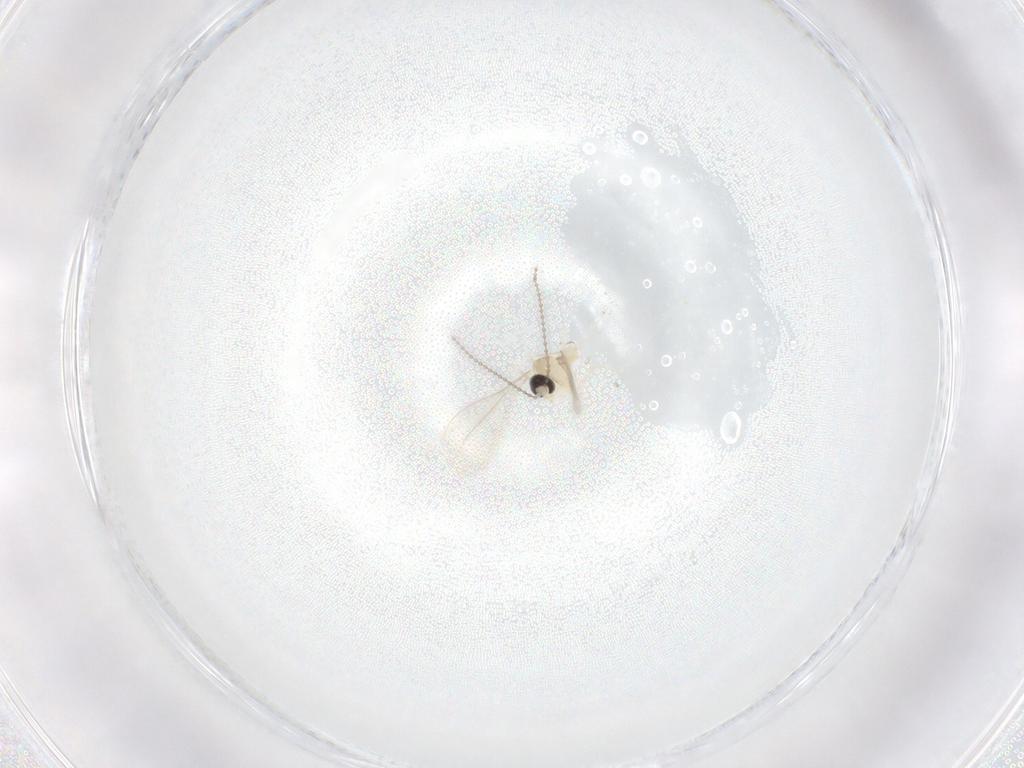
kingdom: Animalia
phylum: Arthropoda
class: Insecta
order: Diptera
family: Cecidomyiidae
